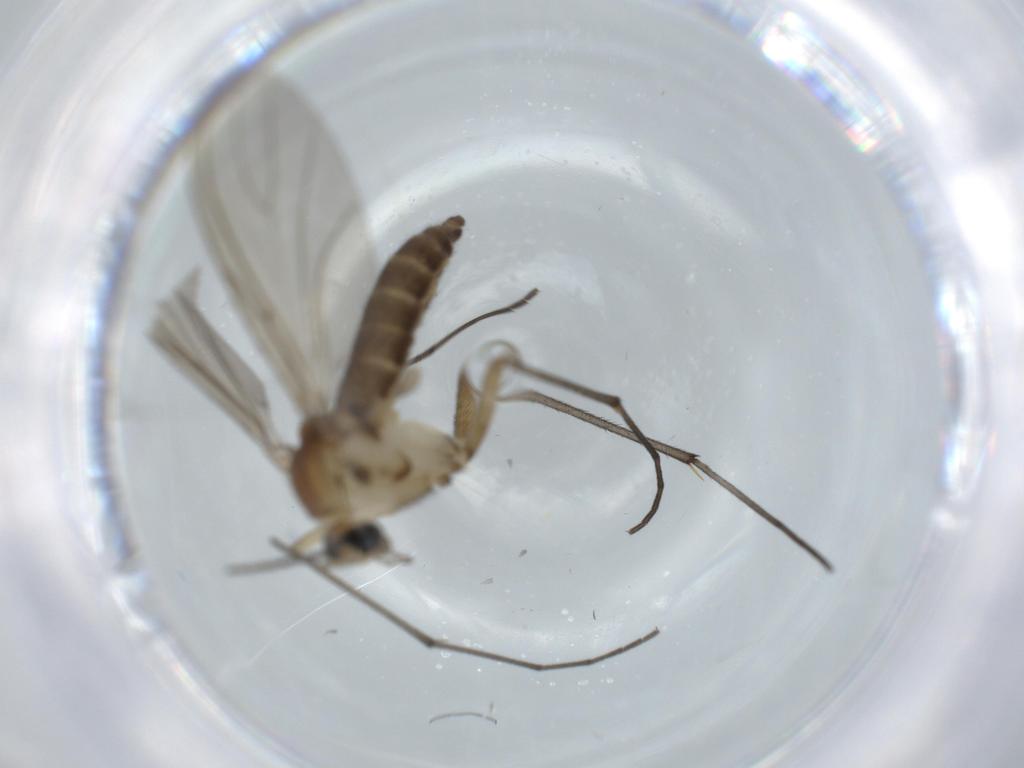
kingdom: Animalia
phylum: Arthropoda
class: Insecta
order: Diptera
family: Sciaridae
